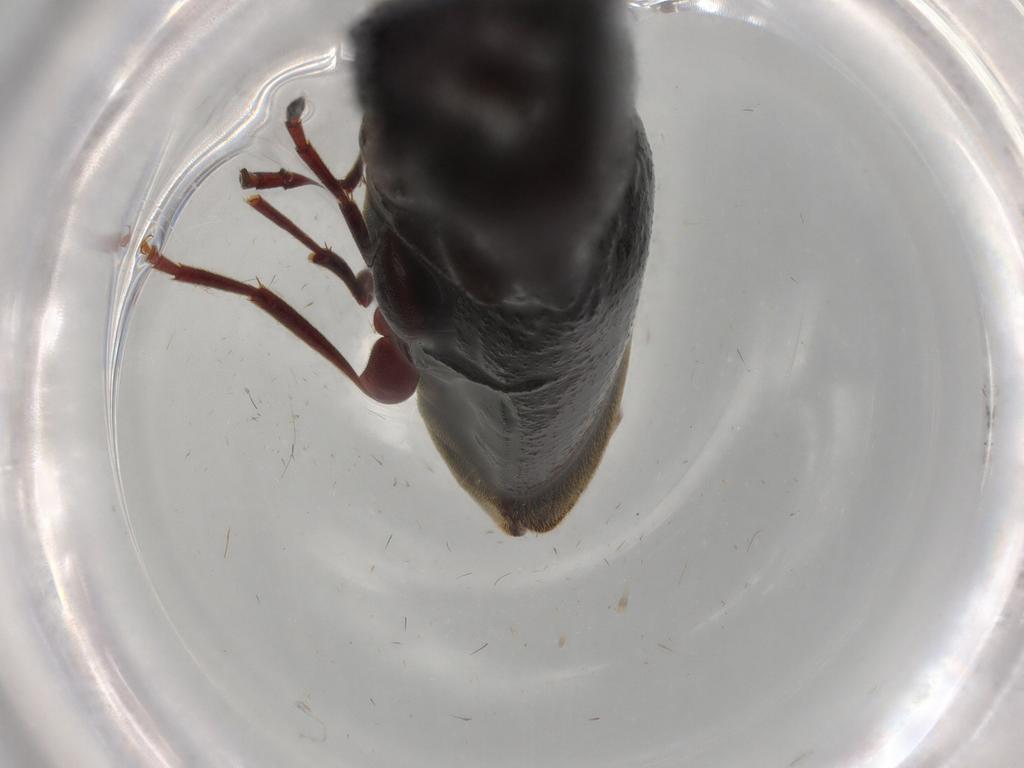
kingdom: Animalia
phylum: Arthropoda
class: Insecta
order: Coleoptera
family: Eucnemidae
